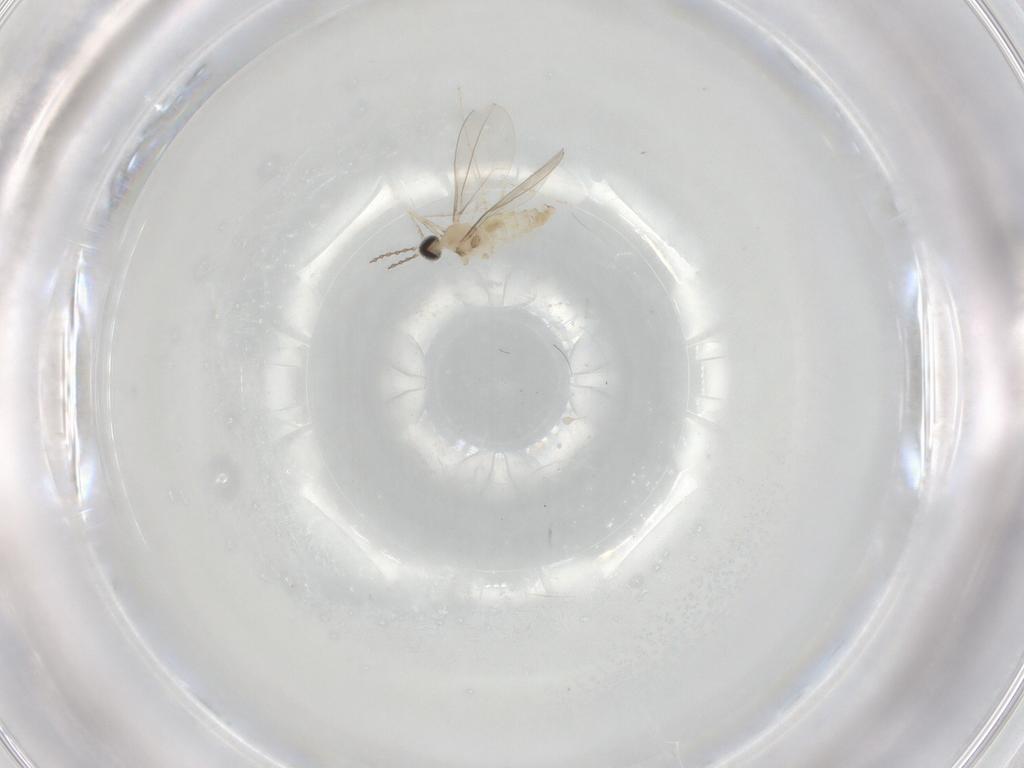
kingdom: Animalia
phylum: Arthropoda
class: Insecta
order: Diptera
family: Cecidomyiidae
